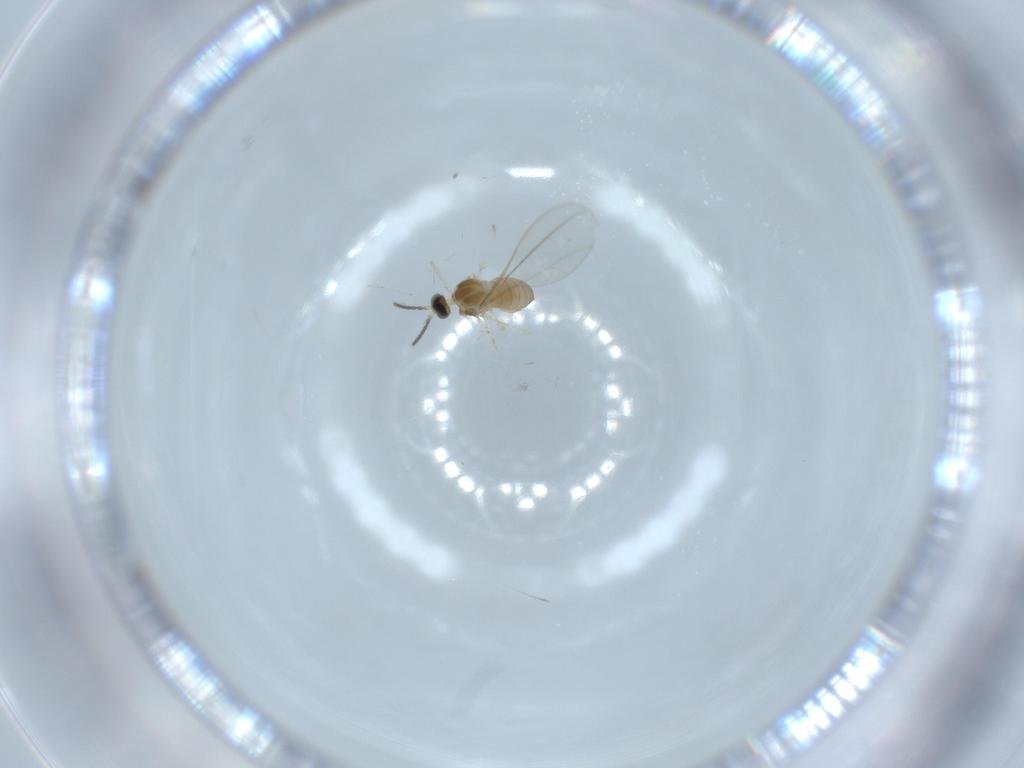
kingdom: Animalia
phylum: Arthropoda
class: Insecta
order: Diptera
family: Cecidomyiidae
